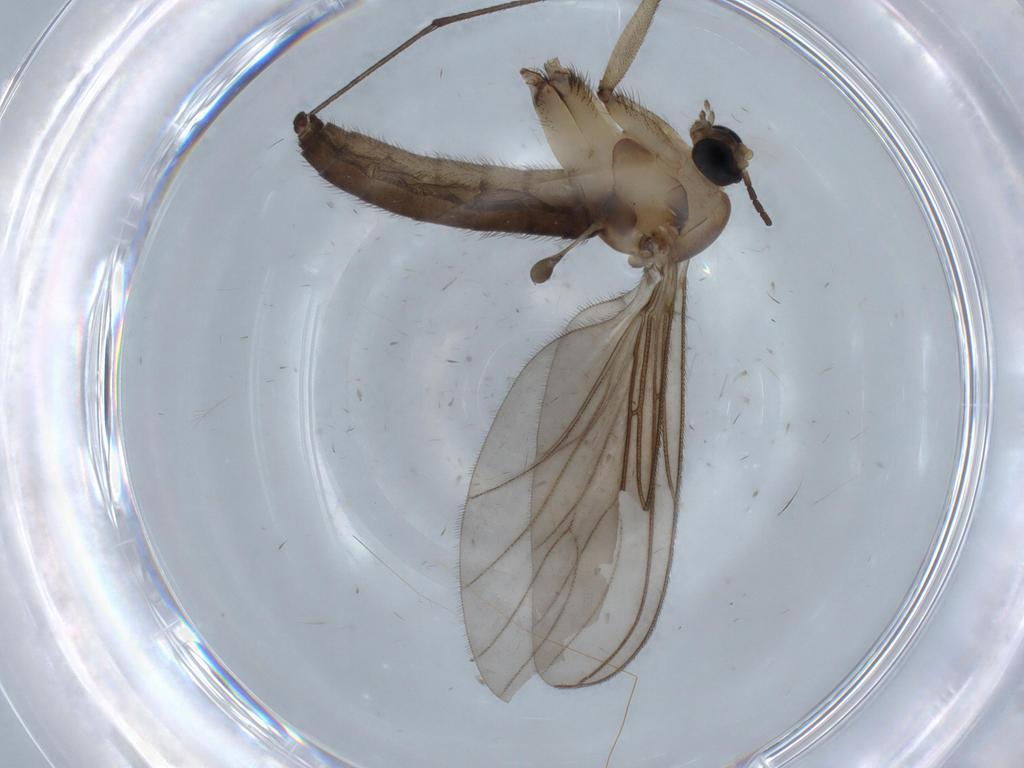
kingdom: Animalia
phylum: Arthropoda
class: Insecta
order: Diptera
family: Sciaridae
